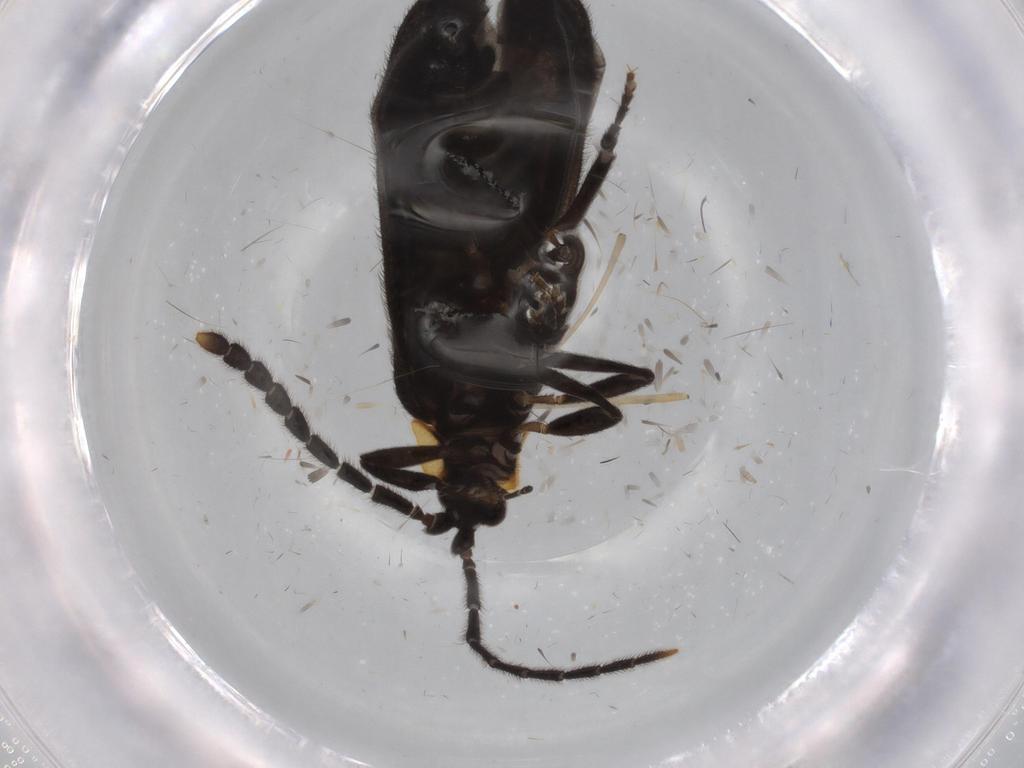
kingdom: Animalia
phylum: Arthropoda
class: Insecta
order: Coleoptera
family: Lycidae
